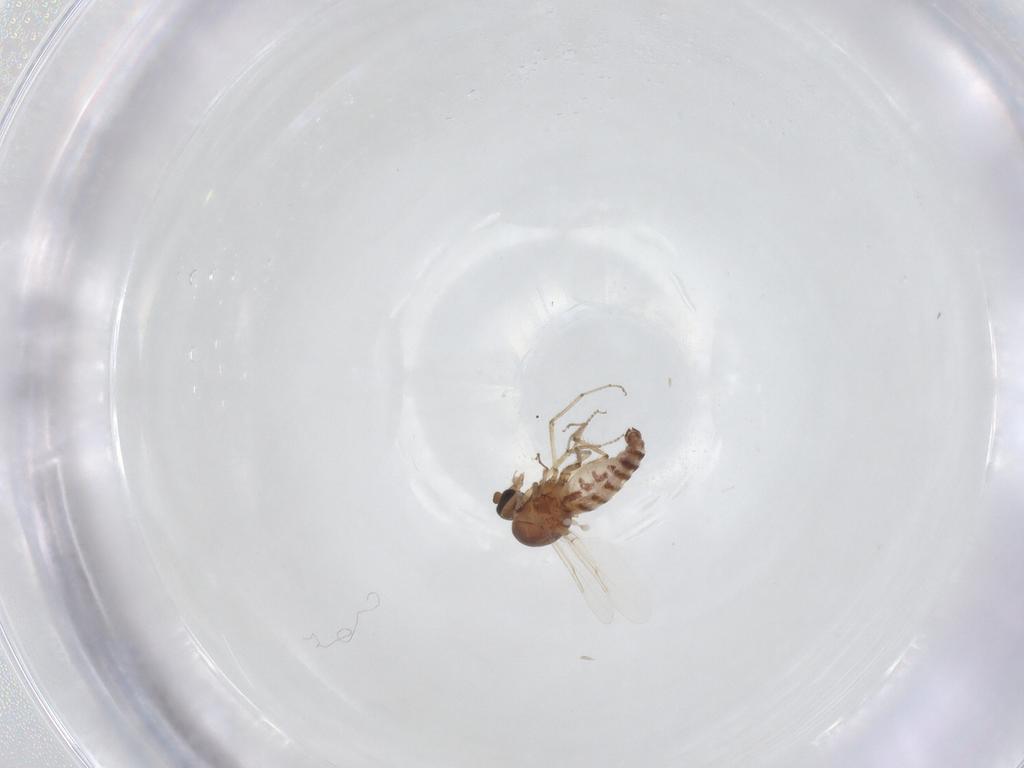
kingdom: Animalia
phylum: Arthropoda
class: Insecta
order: Diptera
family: Ceratopogonidae
